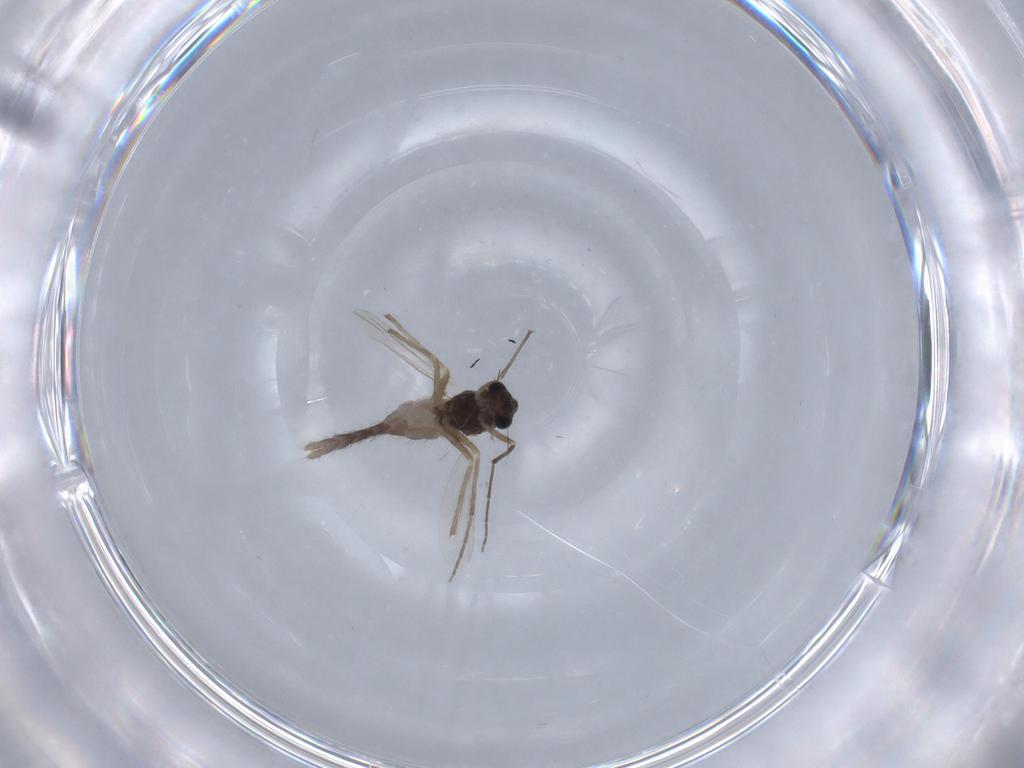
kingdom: Animalia
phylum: Arthropoda
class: Insecta
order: Diptera
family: Chironomidae
